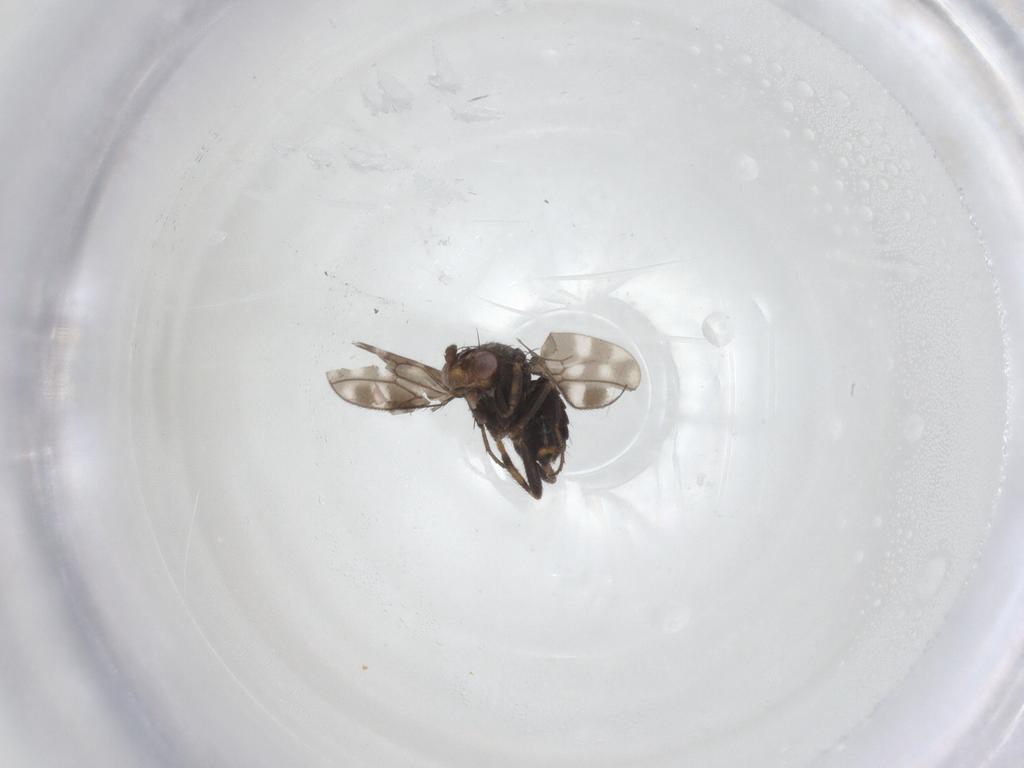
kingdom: Animalia
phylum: Arthropoda
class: Insecta
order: Diptera
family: Sphaeroceridae
